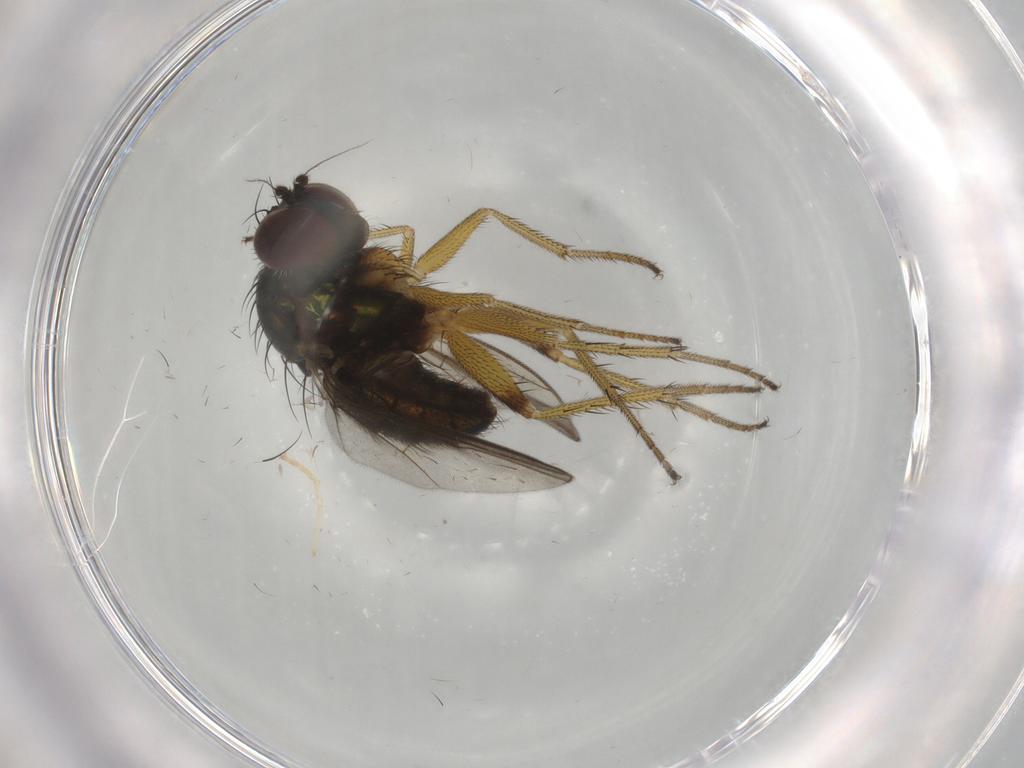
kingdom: Animalia
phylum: Arthropoda
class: Insecta
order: Diptera
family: Dolichopodidae
